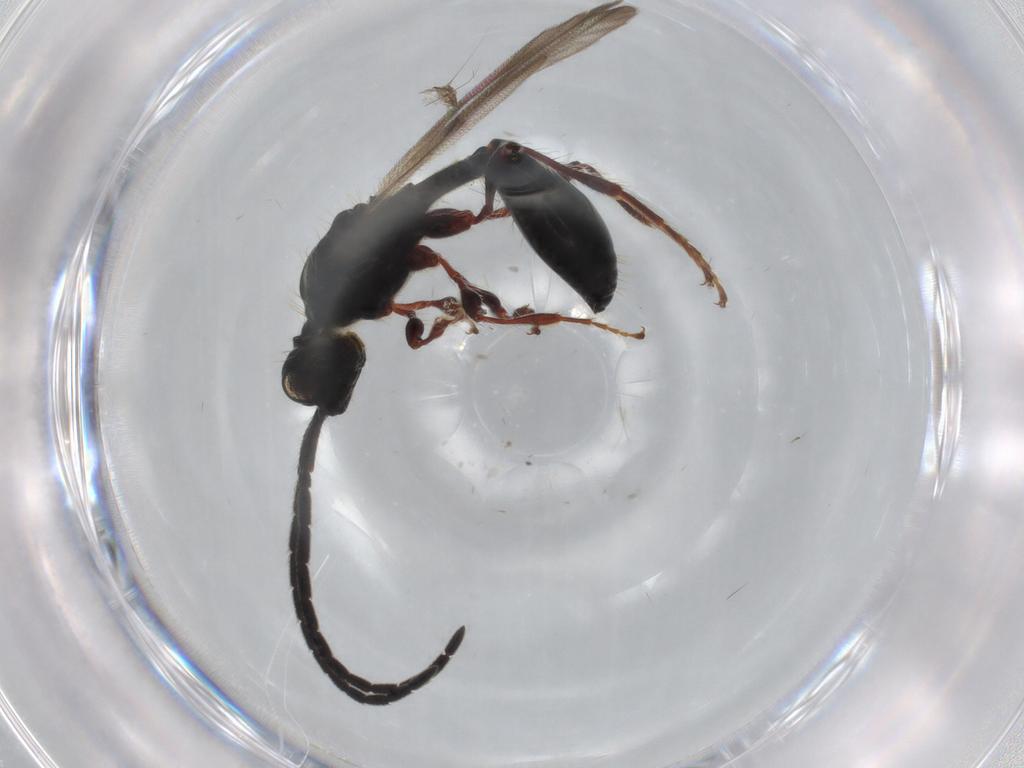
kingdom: Animalia
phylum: Arthropoda
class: Insecta
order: Hymenoptera
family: Diapriidae
